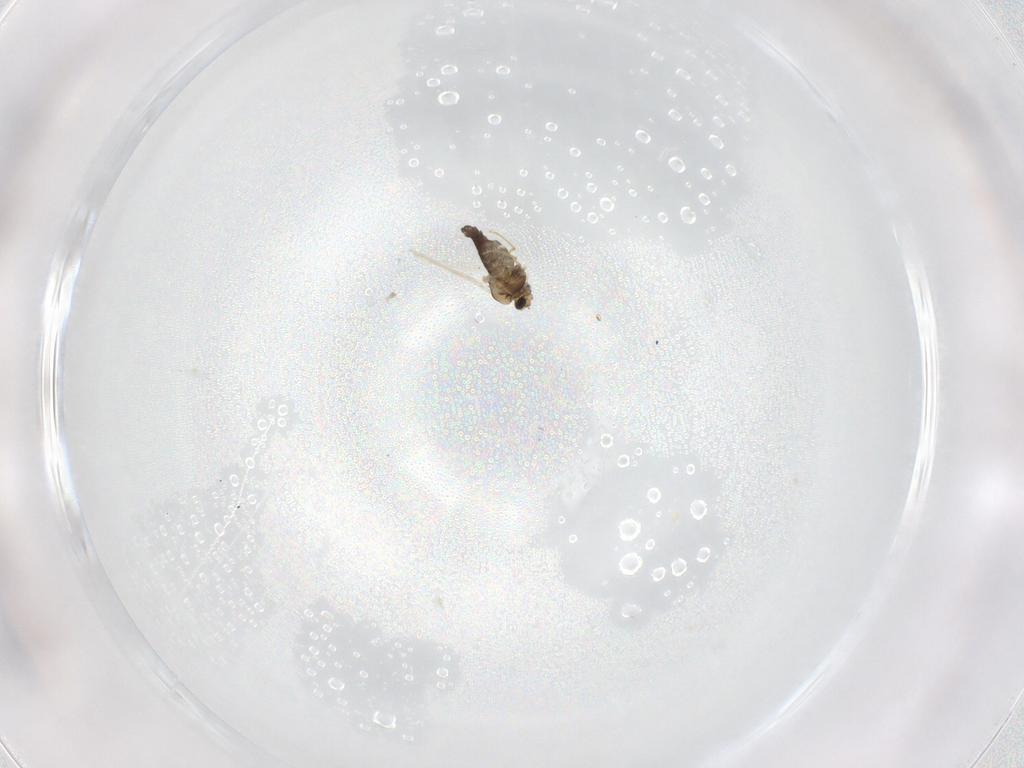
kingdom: Animalia
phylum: Arthropoda
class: Insecta
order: Diptera
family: Chironomidae
